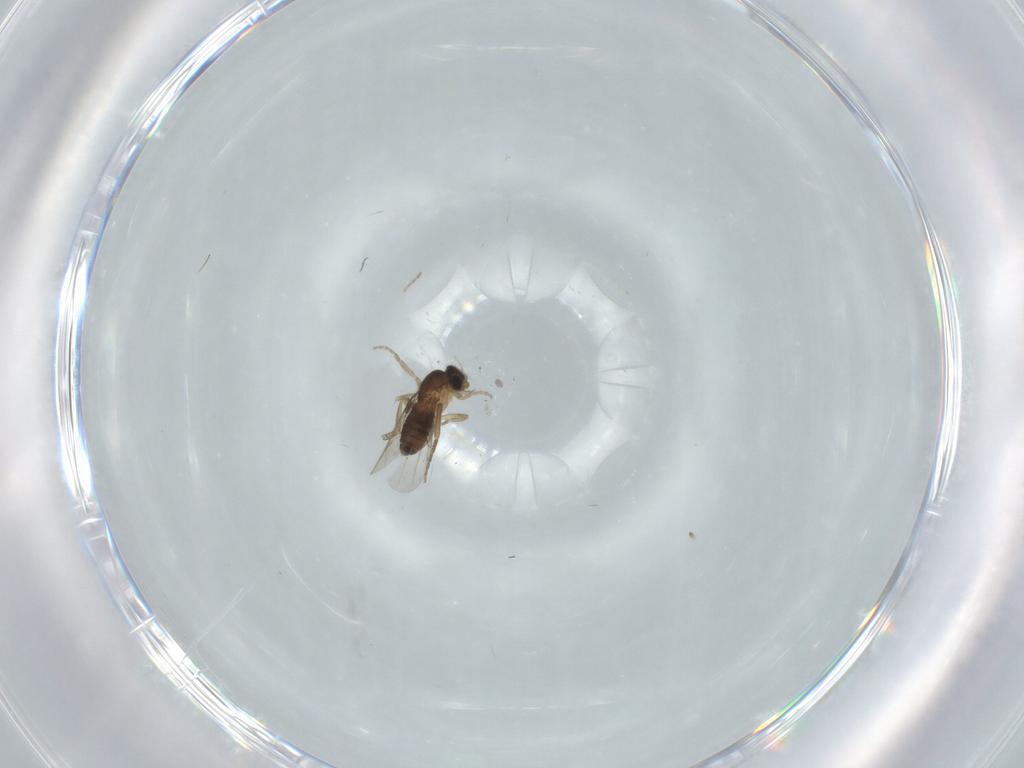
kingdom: Animalia
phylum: Arthropoda
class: Insecta
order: Diptera
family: Phoridae
